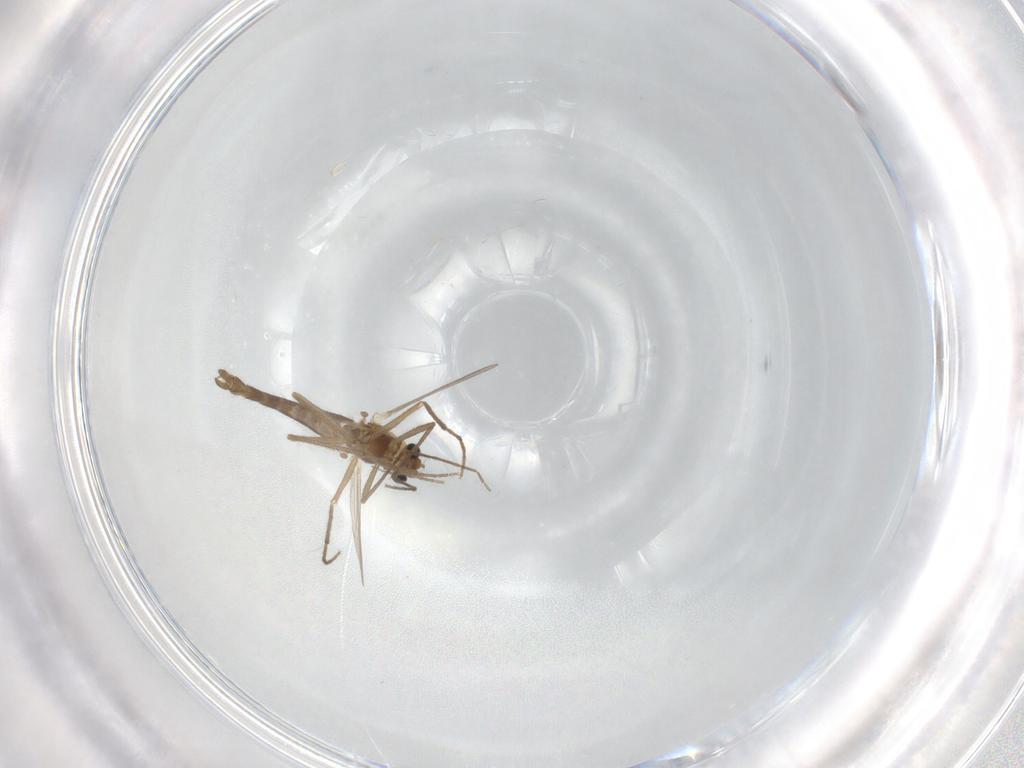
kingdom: Animalia
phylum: Arthropoda
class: Insecta
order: Diptera
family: Chironomidae
